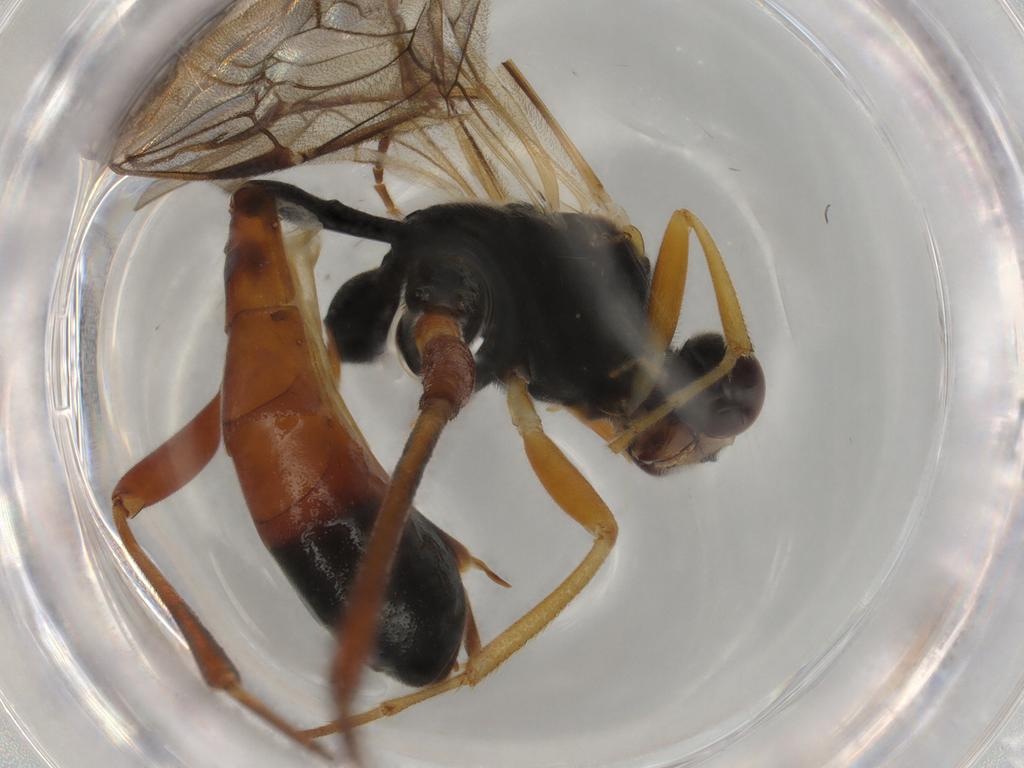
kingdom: Animalia
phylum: Arthropoda
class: Insecta
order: Hymenoptera
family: Ichneumonidae
